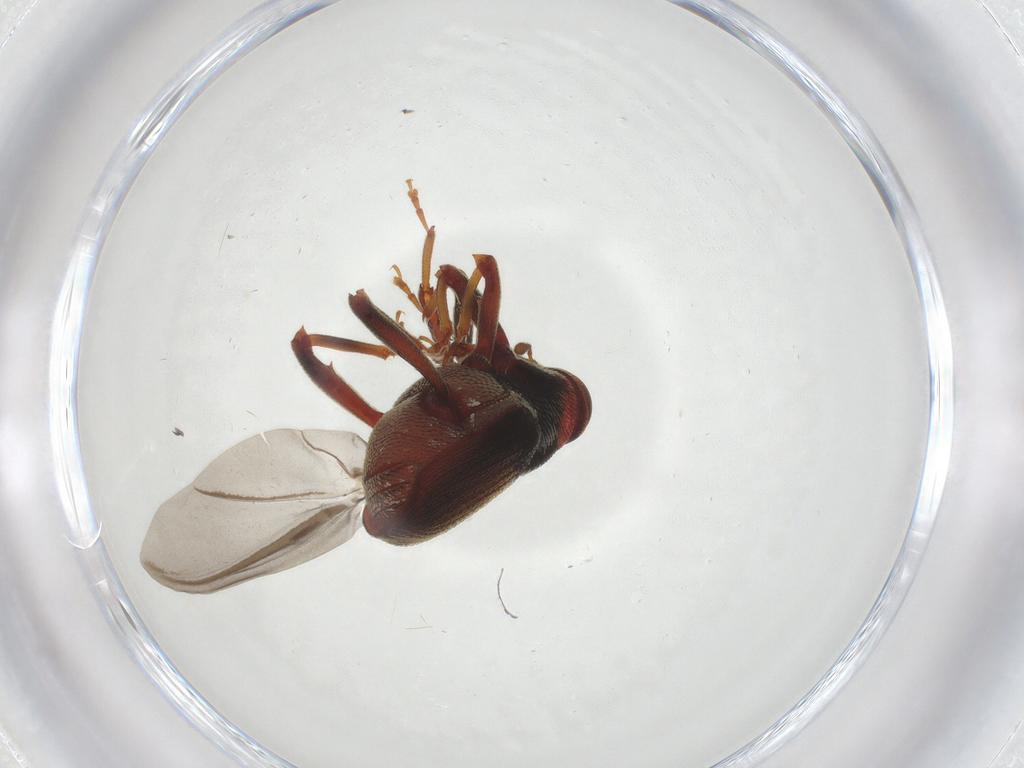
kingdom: Animalia
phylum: Arthropoda
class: Insecta
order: Coleoptera
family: Curculionidae
